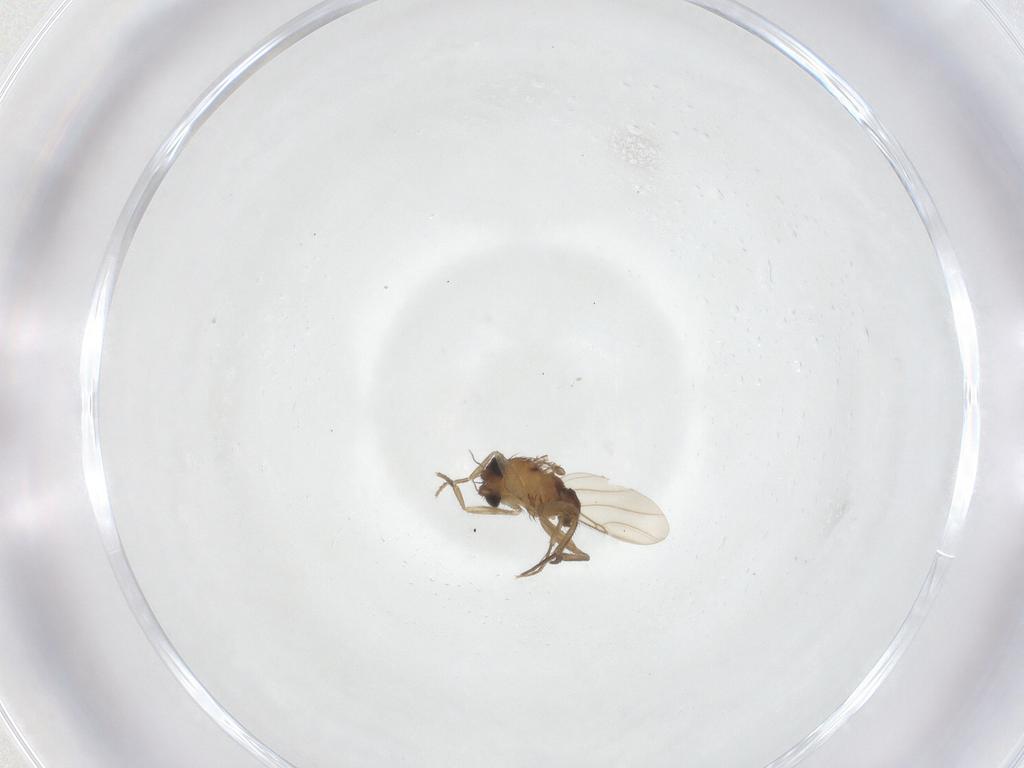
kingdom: Animalia
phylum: Arthropoda
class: Insecta
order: Diptera
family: Phoridae
